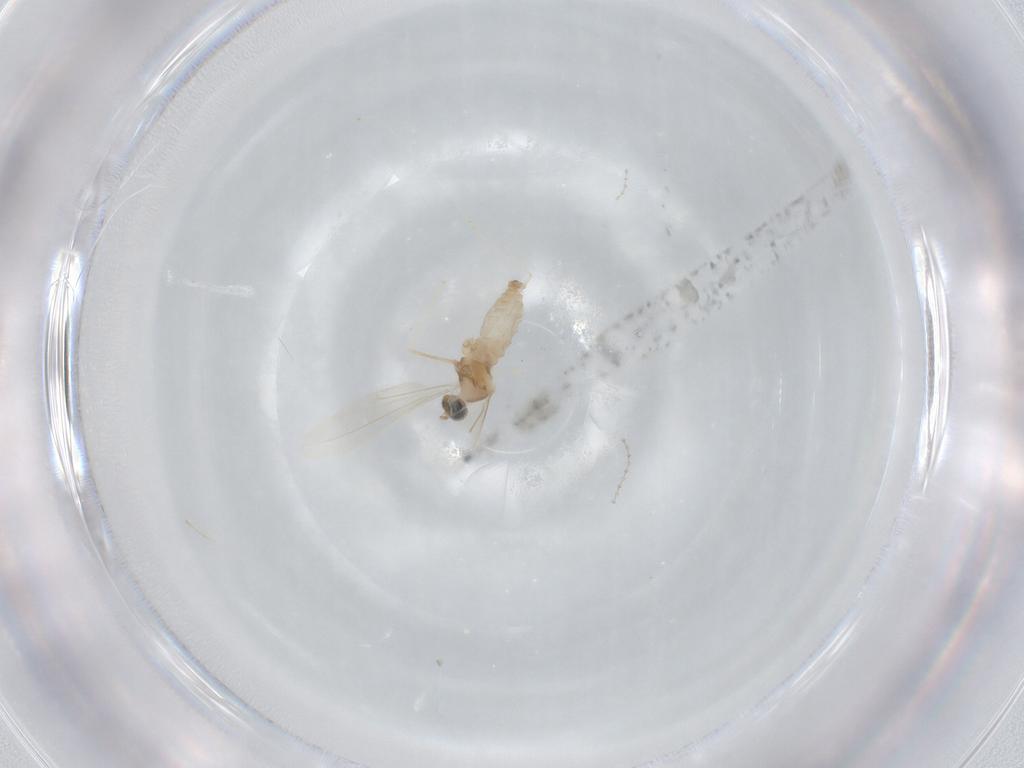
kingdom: Animalia
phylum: Arthropoda
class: Insecta
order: Diptera
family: Cecidomyiidae
